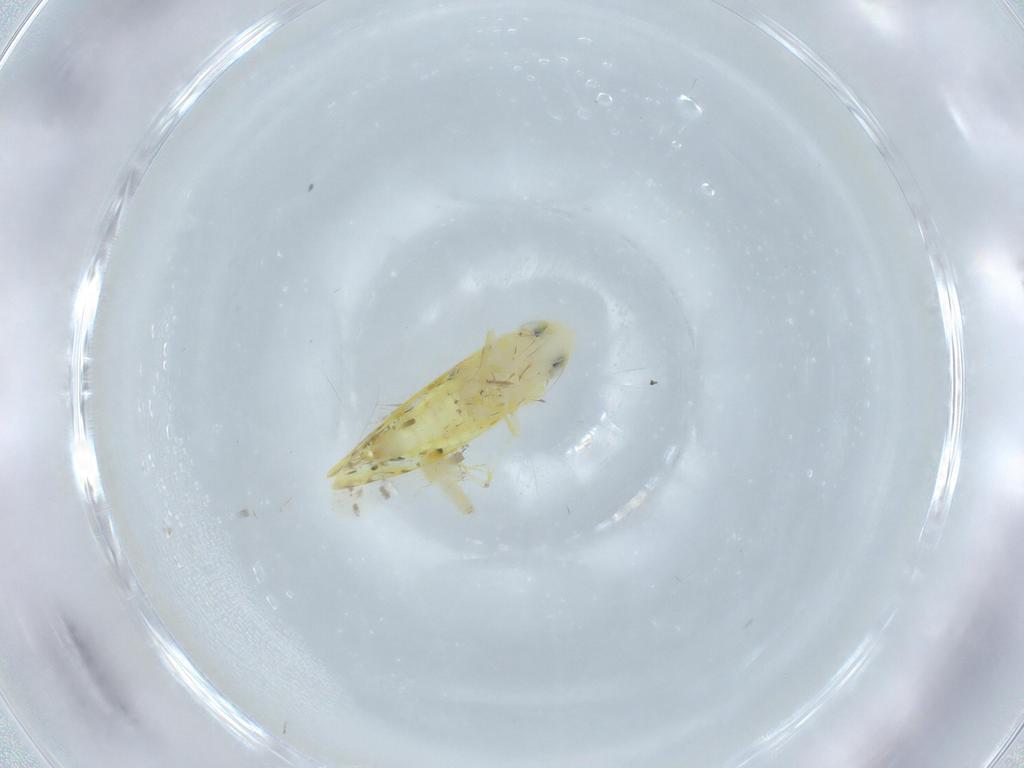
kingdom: Animalia
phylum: Arthropoda
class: Insecta
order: Hemiptera
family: Cicadellidae
